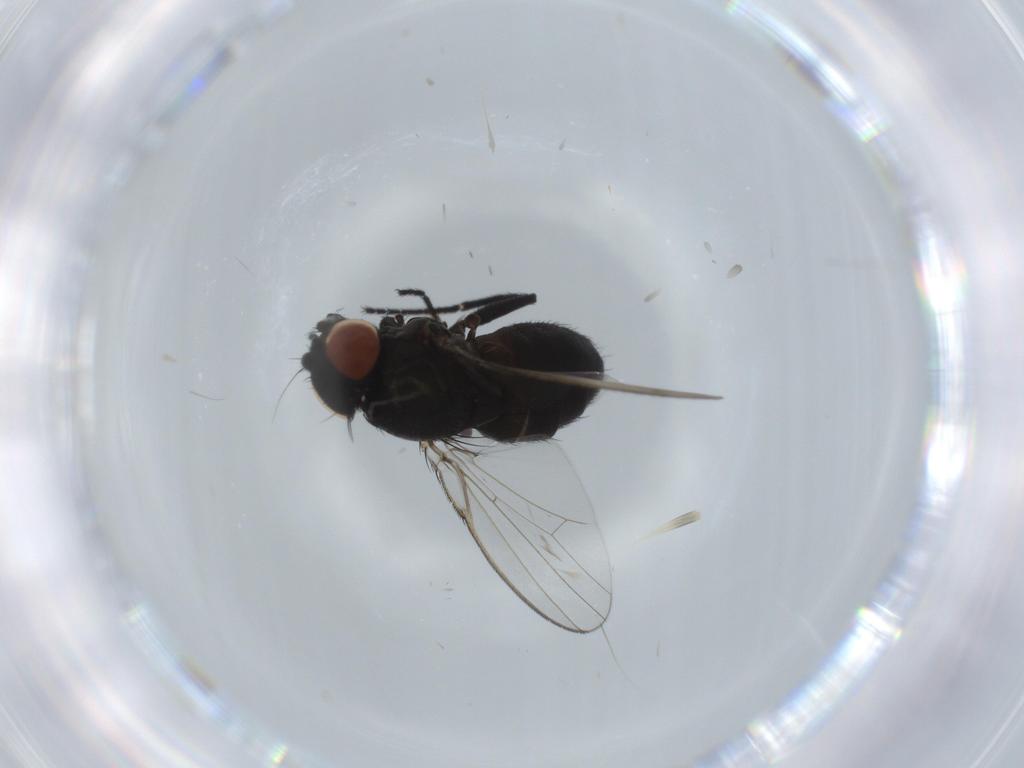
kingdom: Animalia
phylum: Arthropoda
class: Insecta
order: Diptera
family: Milichiidae
